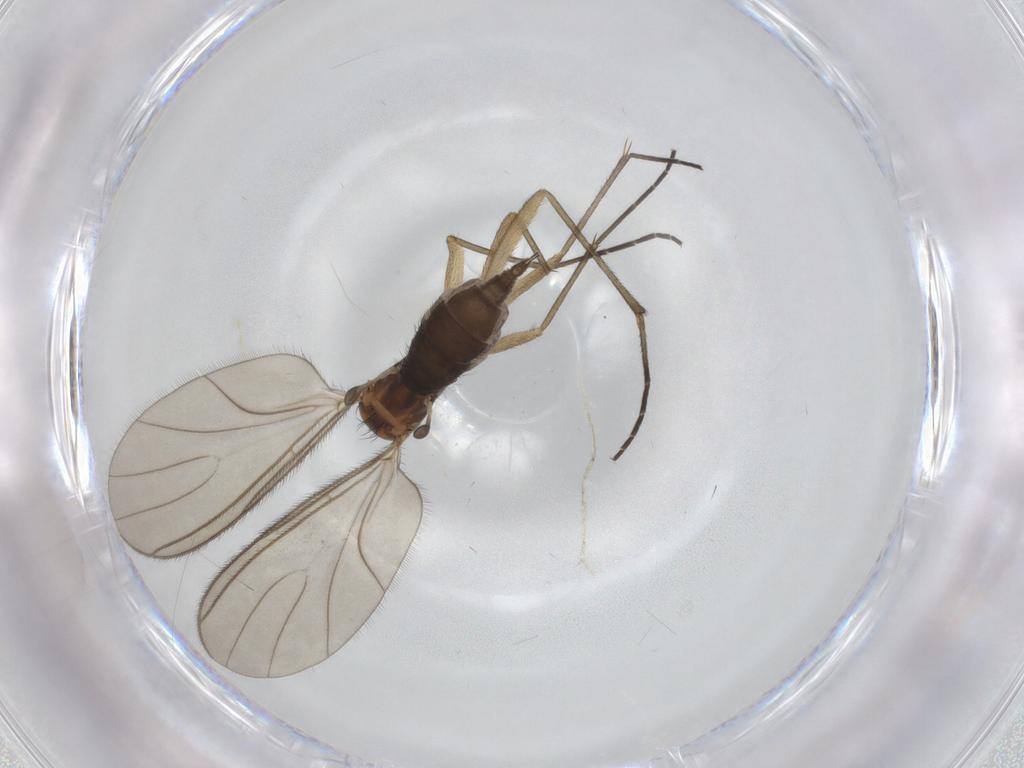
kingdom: Animalia
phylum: Arthropoda
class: Insecta
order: Diptera
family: Sciaridae
